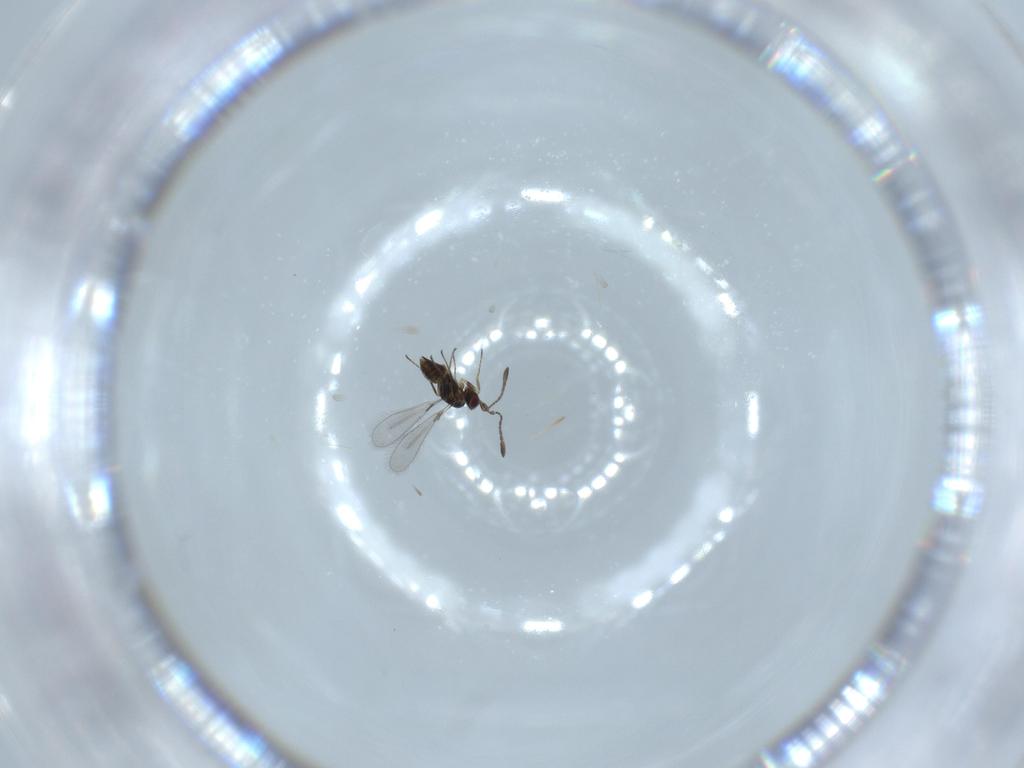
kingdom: Animalia
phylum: Arthropoda
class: Insecta
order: Hymenoptera
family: Mymaridae
